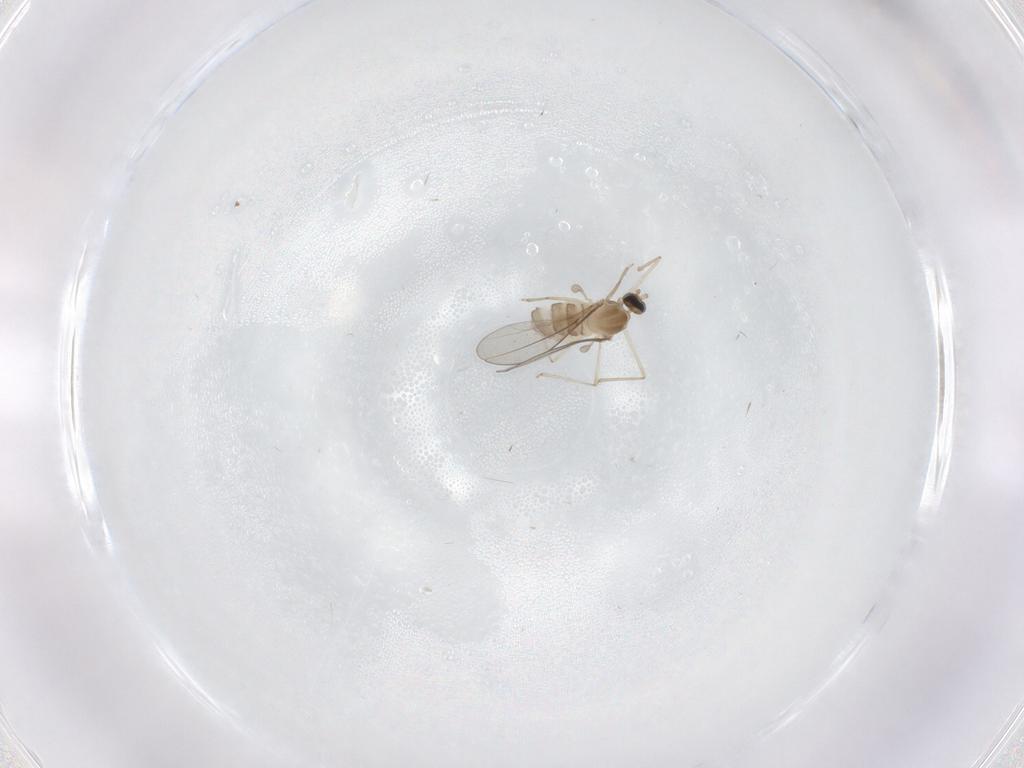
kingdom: Animalia
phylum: Arthropoda
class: Insecta
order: Diptera
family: Cecidomyiidae
